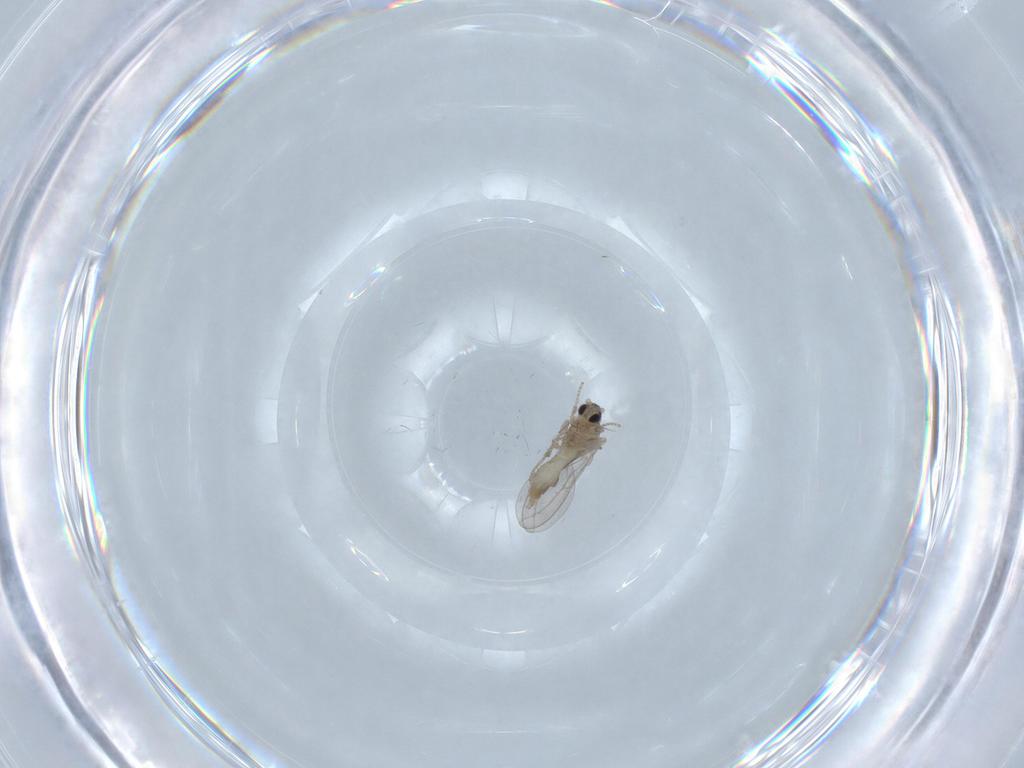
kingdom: Animalia
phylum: Arthropoda
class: Insecta
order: Diptera
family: Cecidomyiidae
